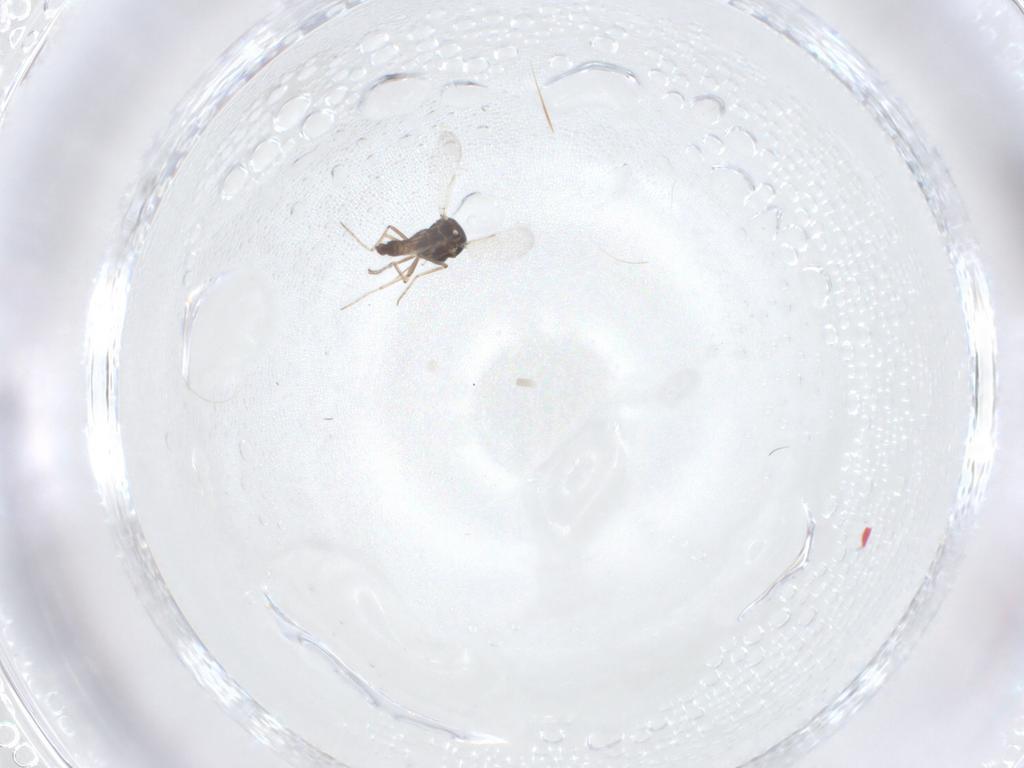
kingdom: Animalia
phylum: Arthropoda
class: Insecta
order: Diptera
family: Ceratopogonidae
